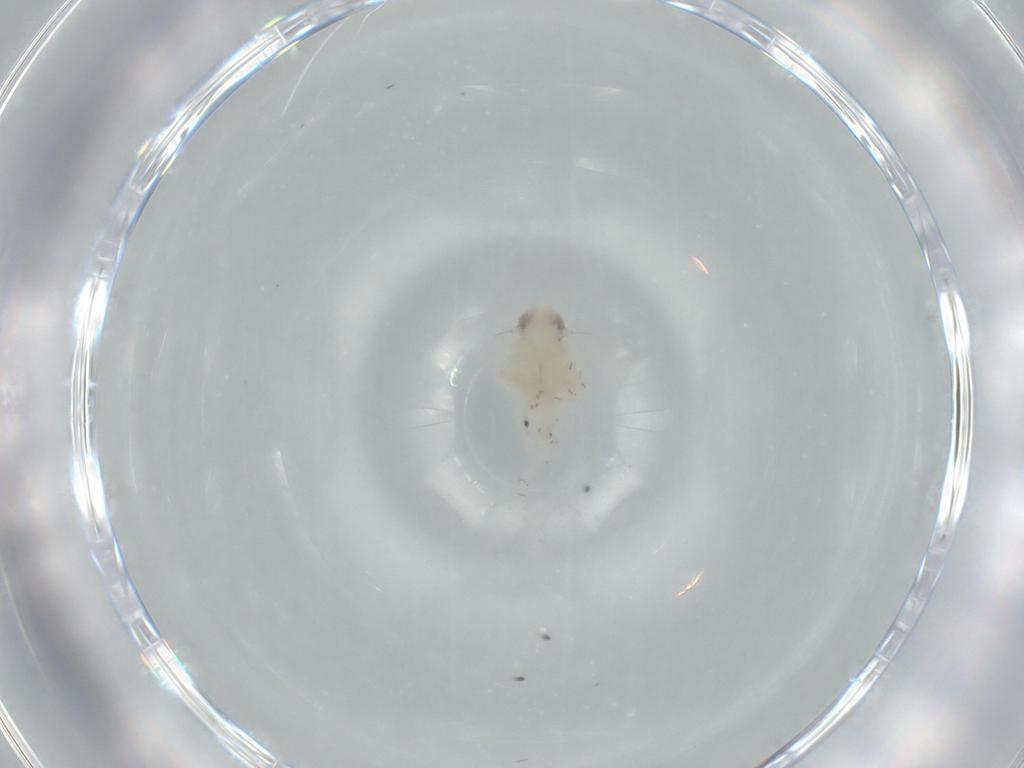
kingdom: Animalia
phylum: Arthropoda
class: Insecta
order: Hemiptera
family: Nogodinidae
